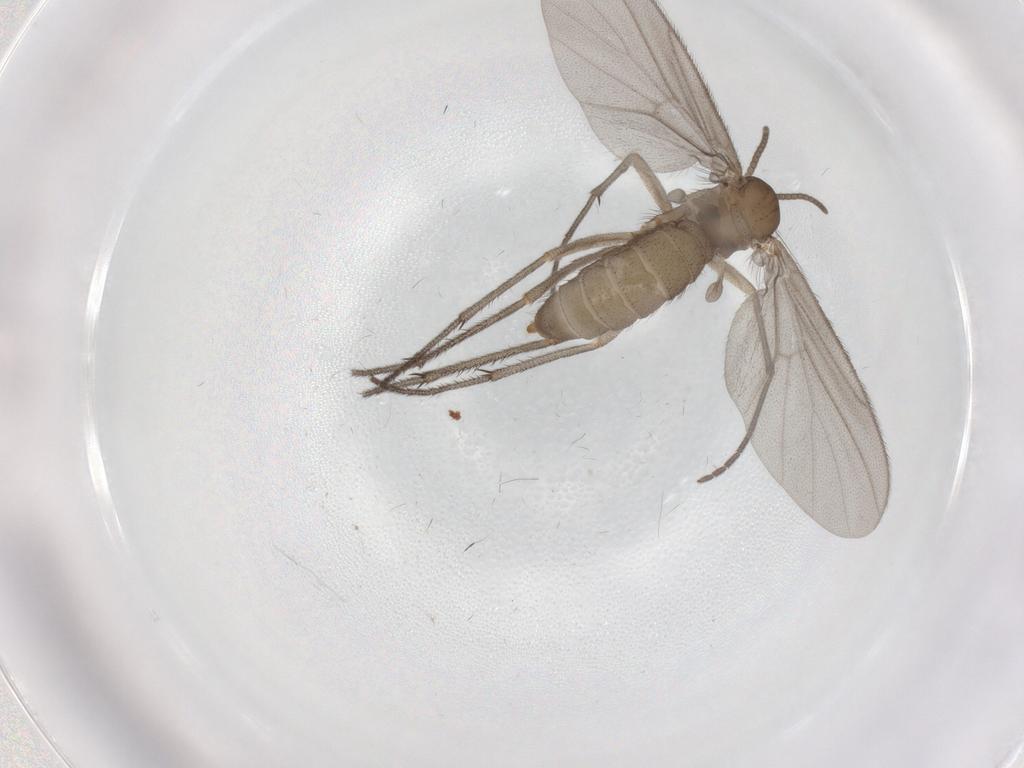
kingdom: Animalia
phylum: Arthropoda
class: Insecta
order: Diptera
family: Diadocidiidae
